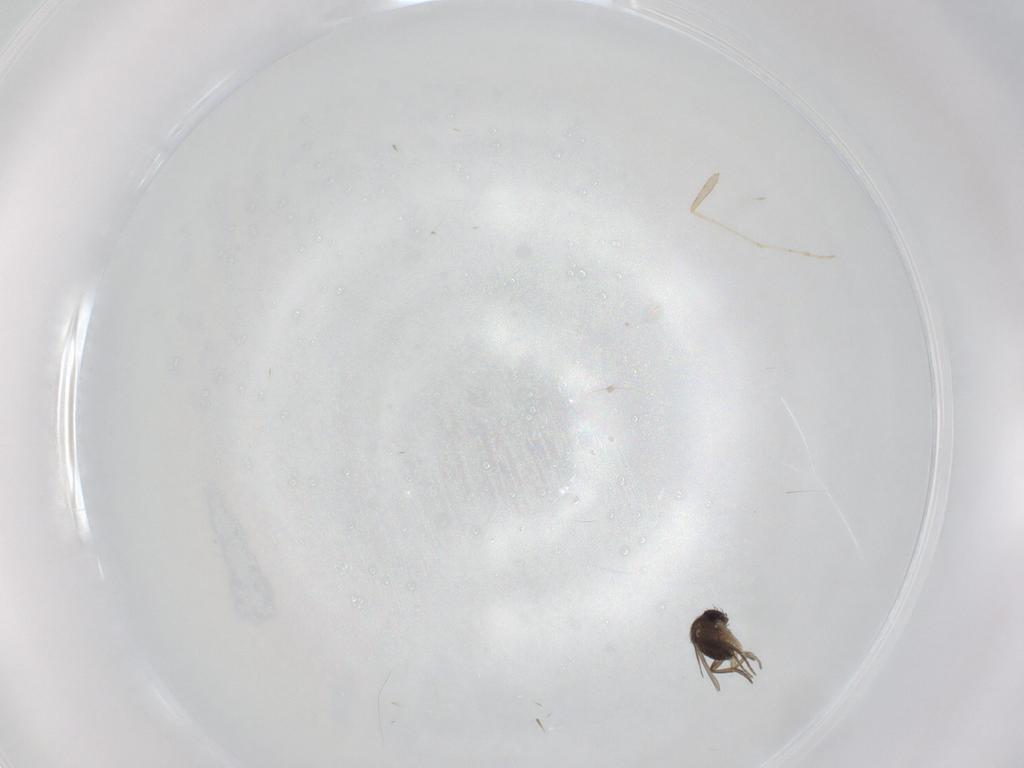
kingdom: Animalia
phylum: Arthropoda
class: Insecta
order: Diptera
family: Phoridae
